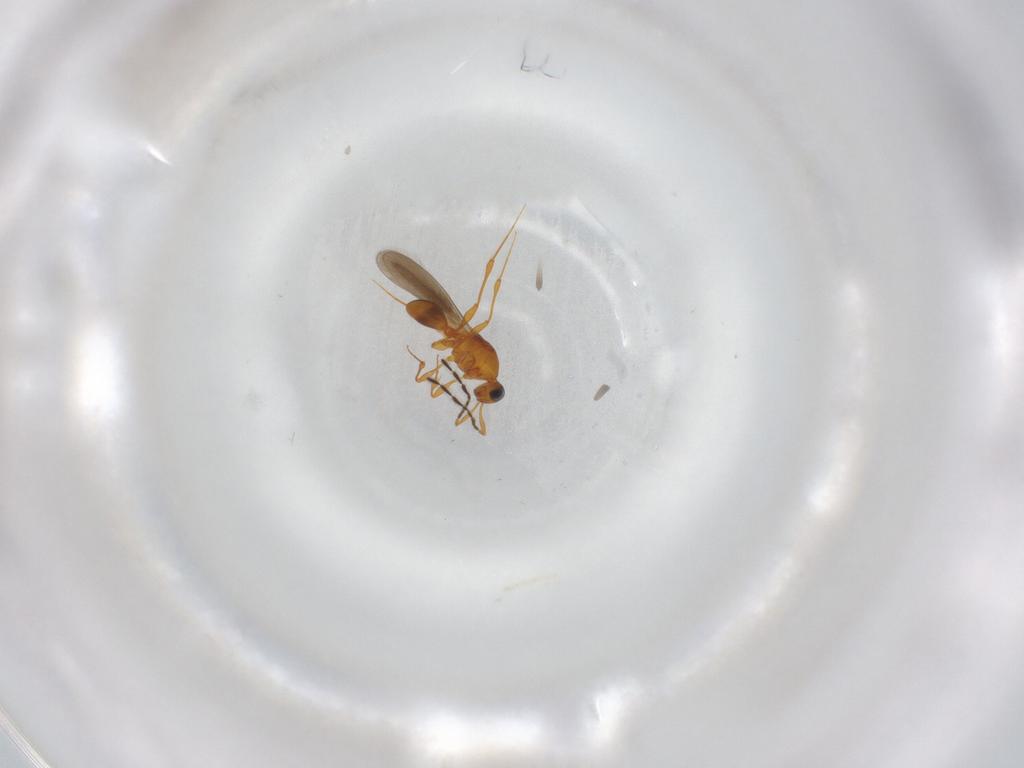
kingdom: Animalia
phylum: Arthropoda
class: Insecta
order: Hymenoptera
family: Platygastridae
